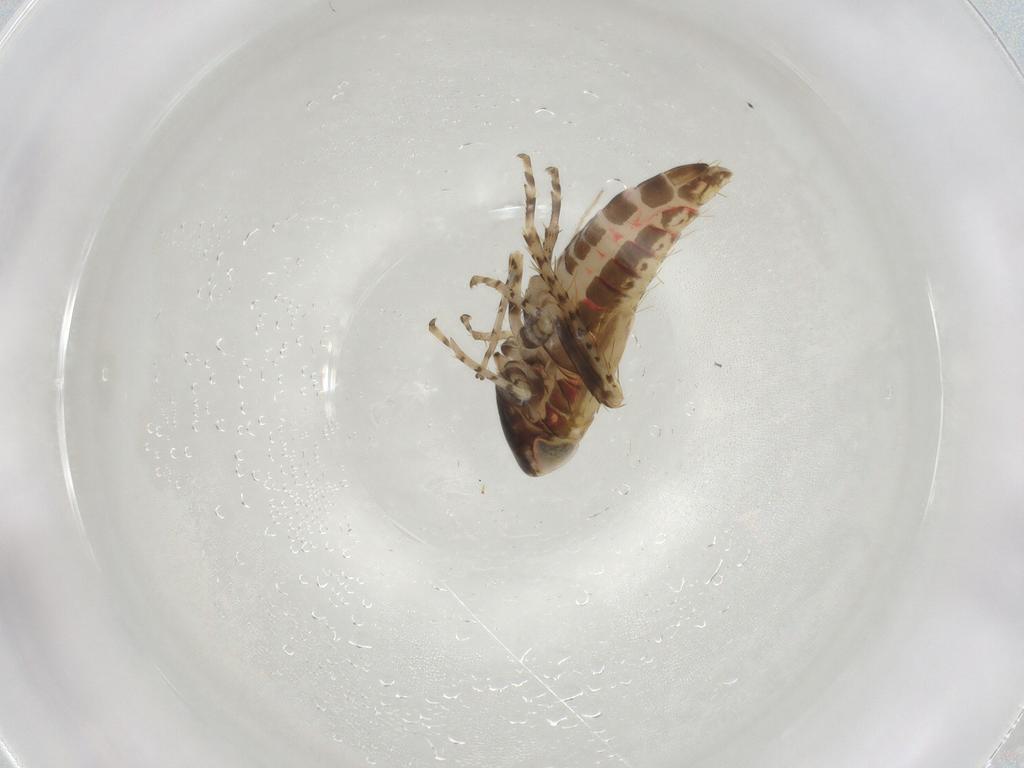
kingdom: Animalia
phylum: Arthropoda
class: Insecta
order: Hemiptera
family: Cicadellidae
